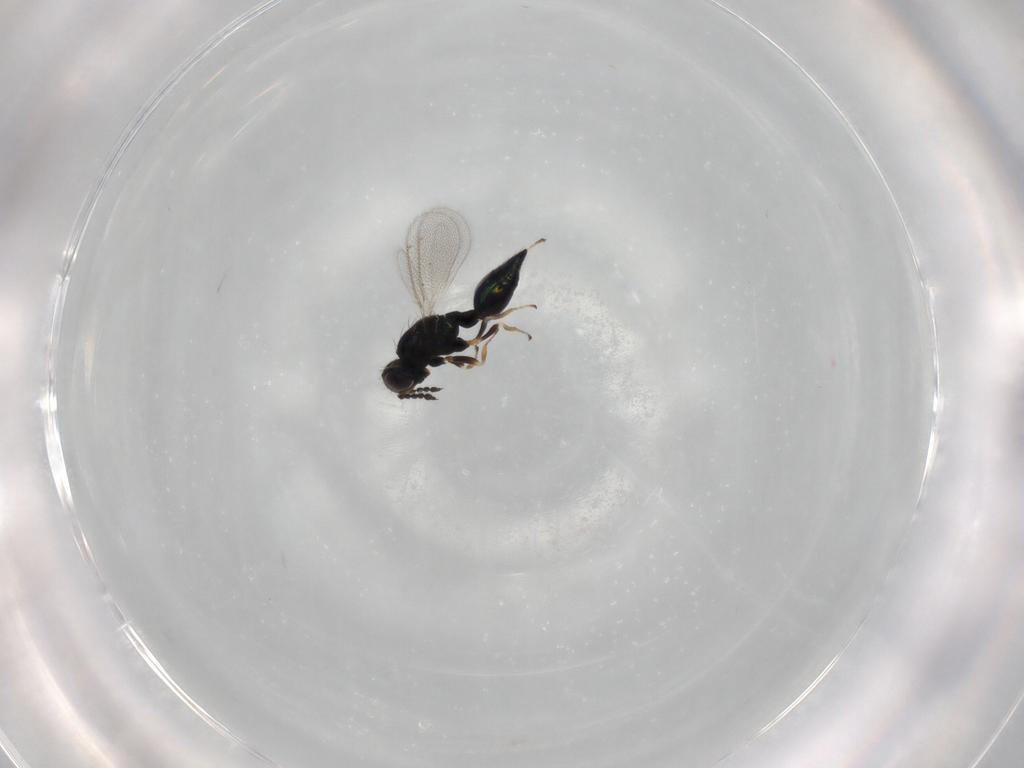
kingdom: Animalia
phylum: Arthropoda
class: Insecta
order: Hymenoptera
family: Eulophidae
